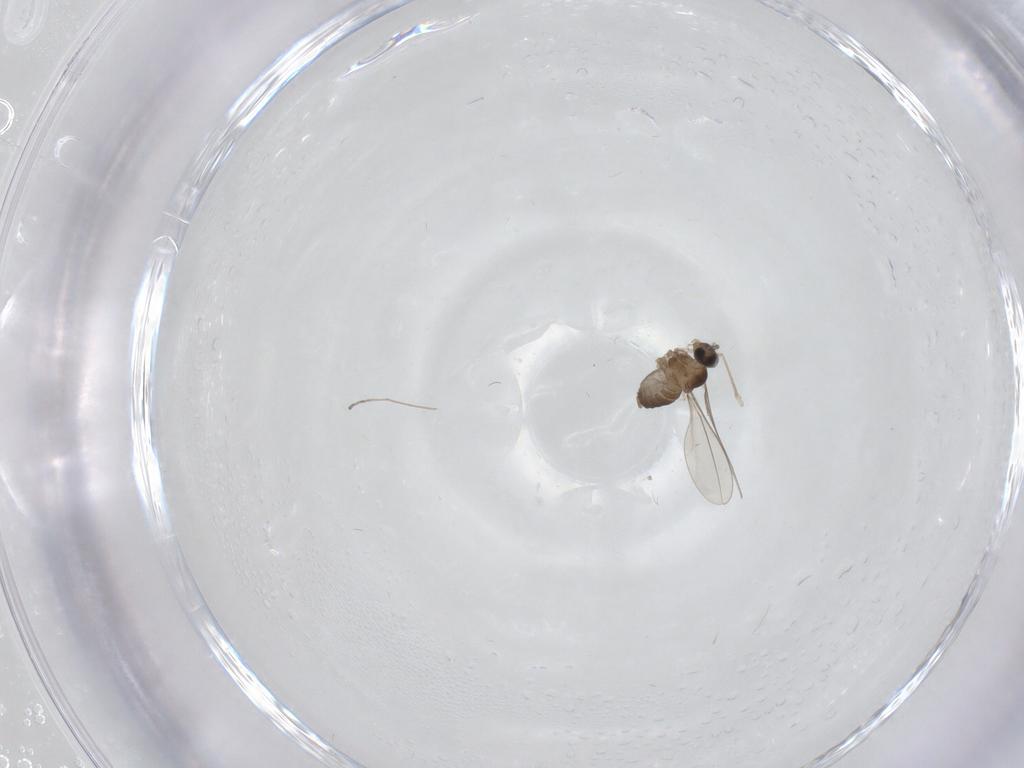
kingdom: Animalia
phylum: Arthropoda
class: Insecta
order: Diptera
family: Cecidomyiidae
